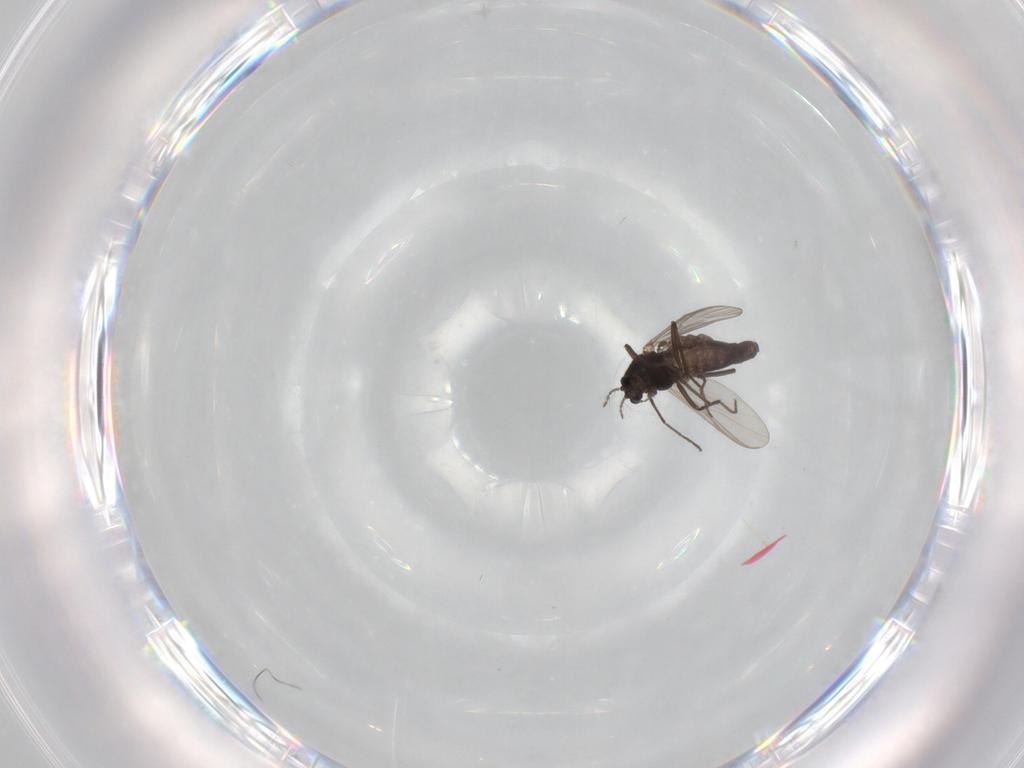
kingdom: Animalia
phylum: Arthropoda
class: Insecta
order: Diptera
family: Chironomidae
